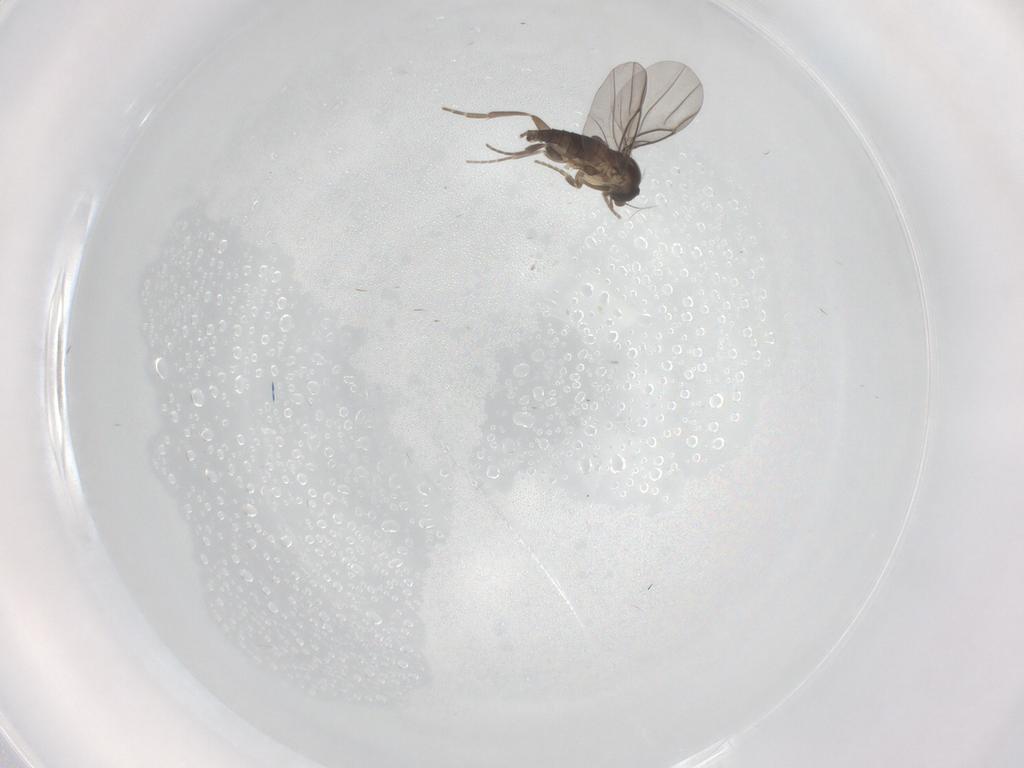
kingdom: Animalia
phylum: Arthropoda
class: Insecta
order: Diptera
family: Phoridae
